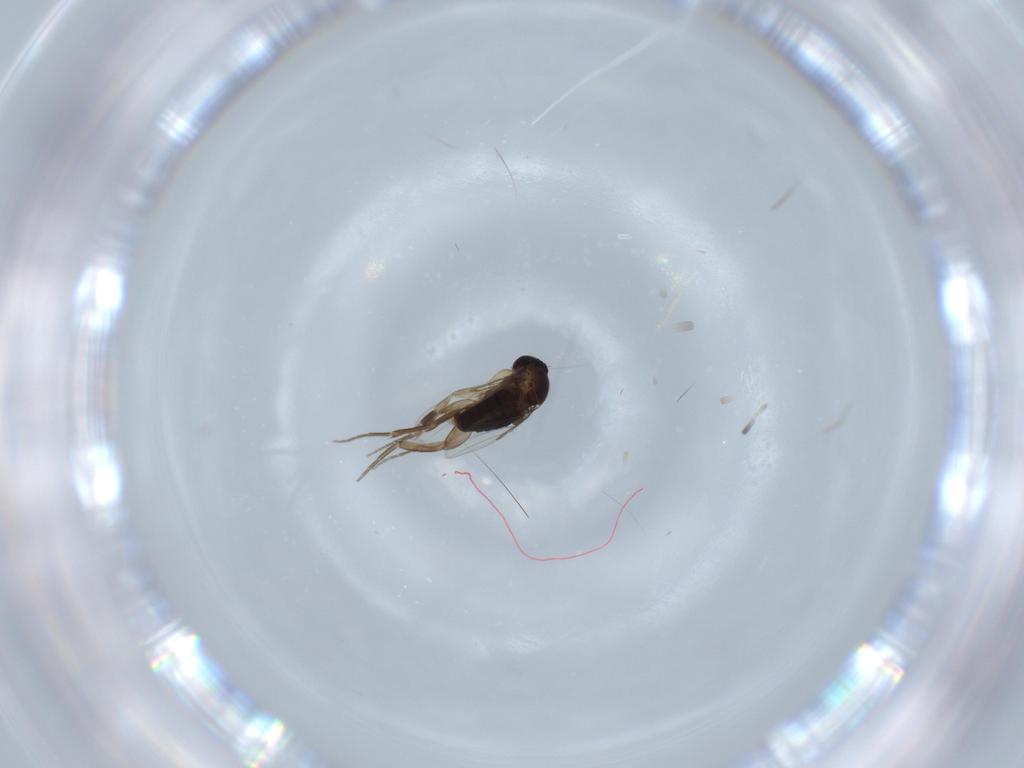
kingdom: Animalia
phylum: Arthropoda
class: Insecta
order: Diptera
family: Phoridae
